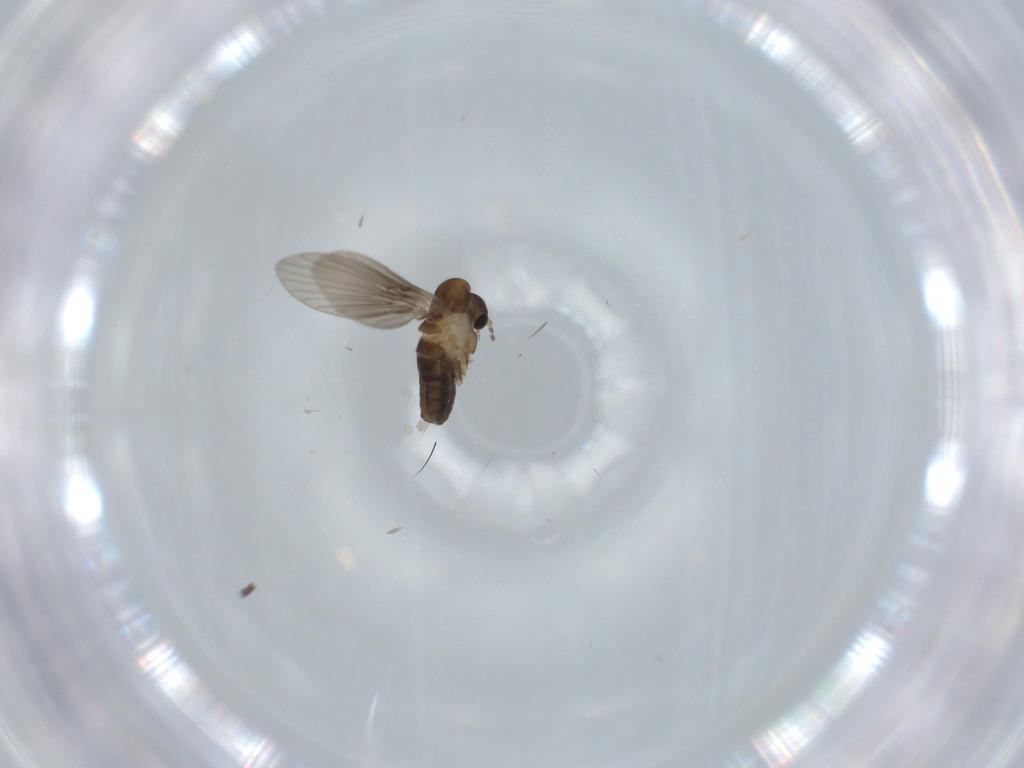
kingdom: Animalia
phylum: Arthropoda
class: Insecta
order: Diptera
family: Psychodidae
